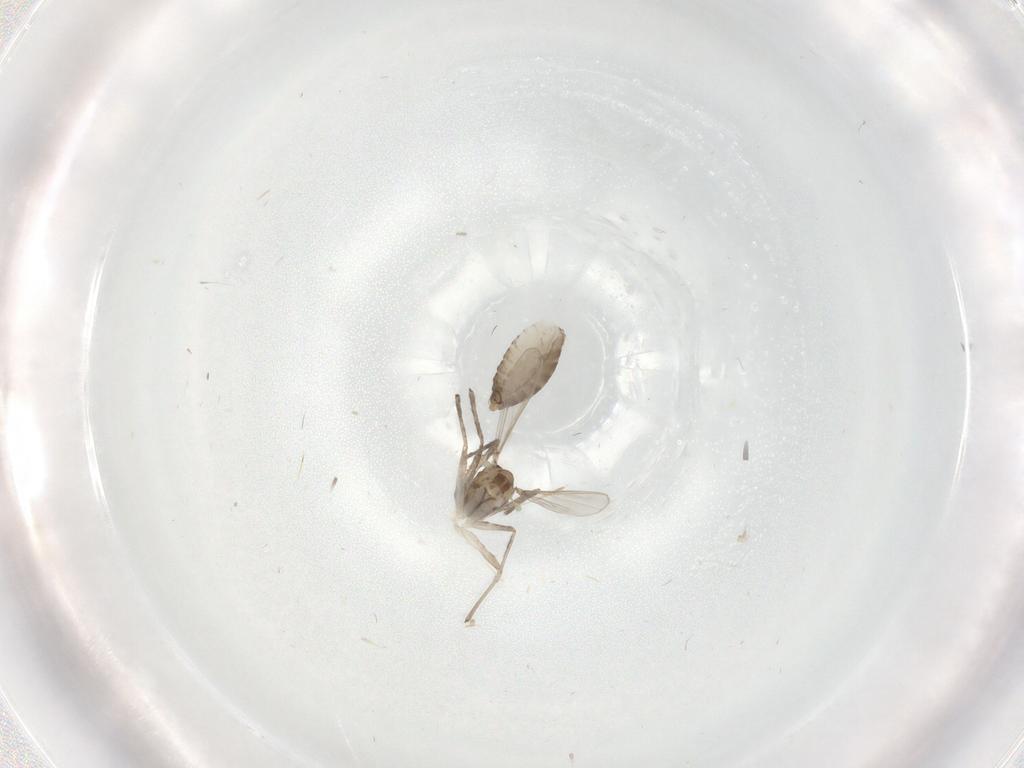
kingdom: Animalia
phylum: Arthropoda
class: Insecta
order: Diptera
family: Chironomidae
